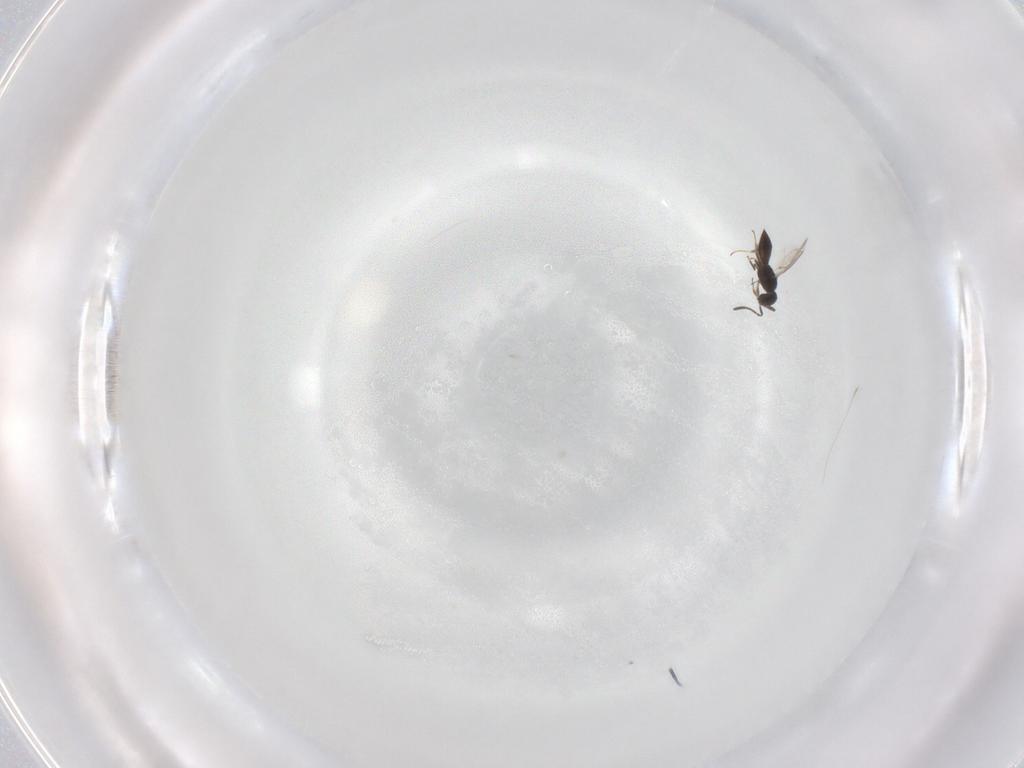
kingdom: Animalia
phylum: Arthropoda
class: Insecta
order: Hymenoptera
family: Scelionidae
